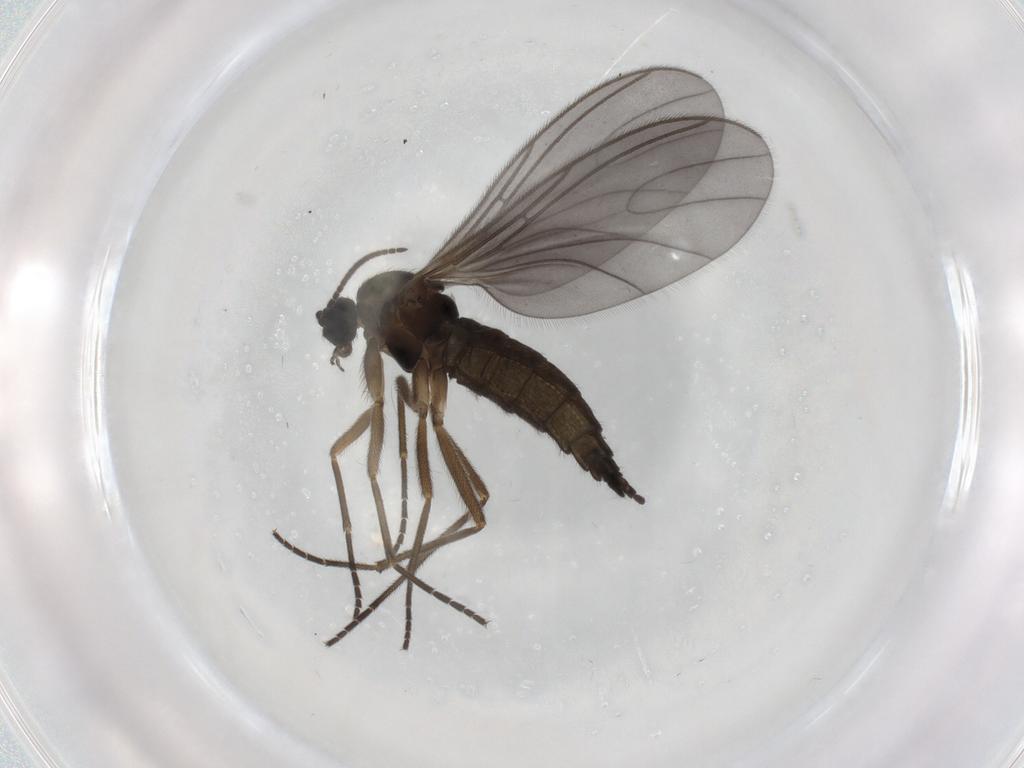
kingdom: Animalia
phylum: Arthropoda
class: Insecta
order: Diptera
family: Sciaridae
